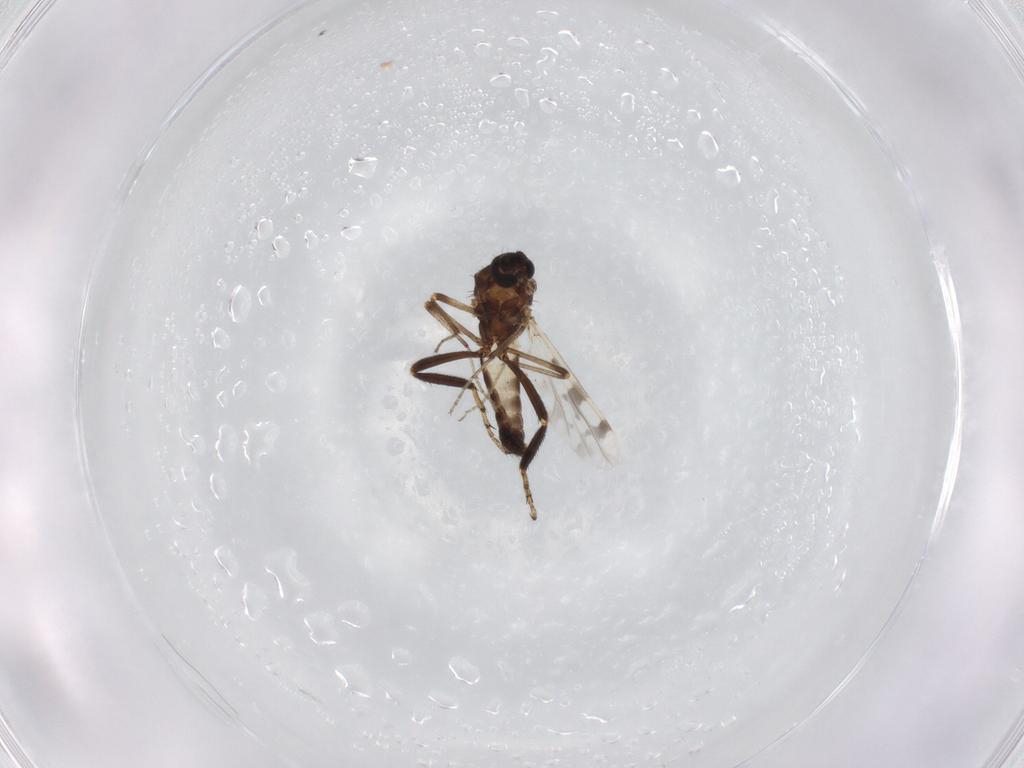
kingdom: Animalia
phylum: Arthropoda
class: Insecta
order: Diptera
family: Ceratopogonidae
